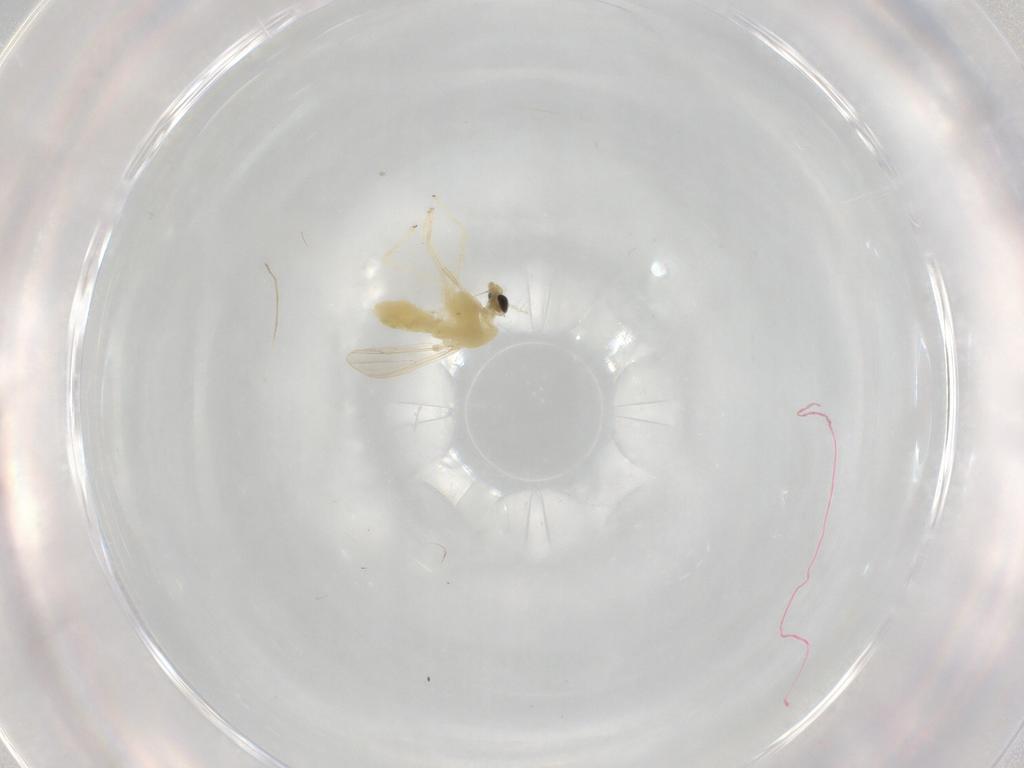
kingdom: Animalia
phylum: Arthropoda
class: Insecta
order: Diptera
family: Chironomidae
